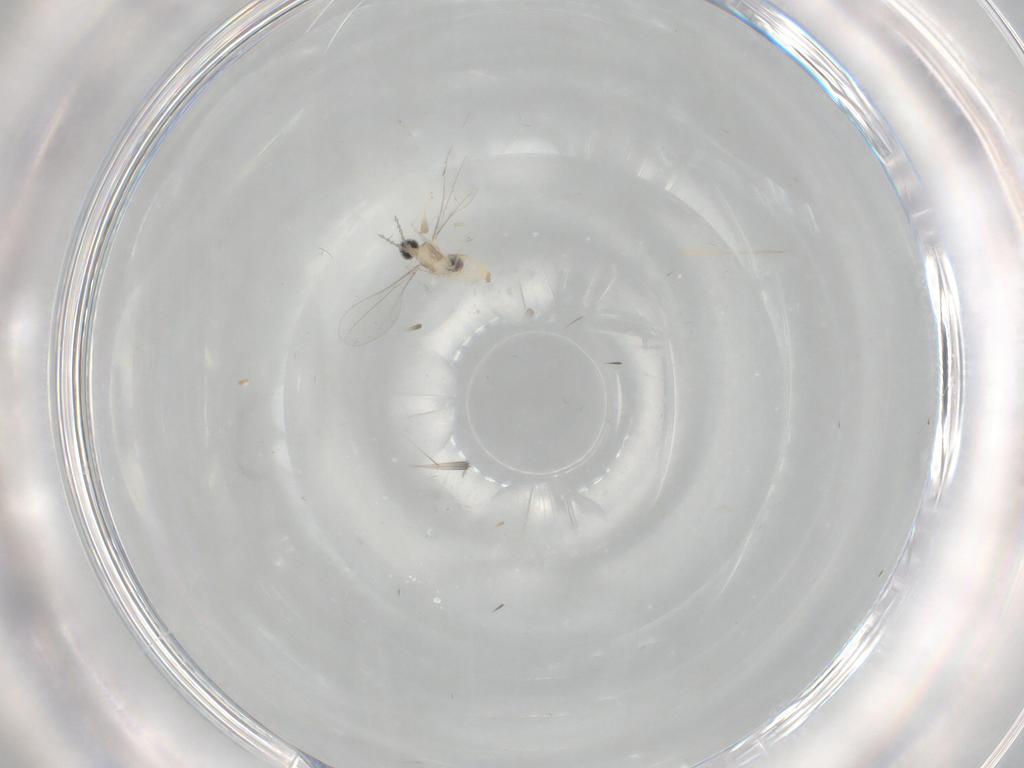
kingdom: Animalia
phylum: Arthropoda
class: Insecta
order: Diptera
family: Cecidomyiidae
